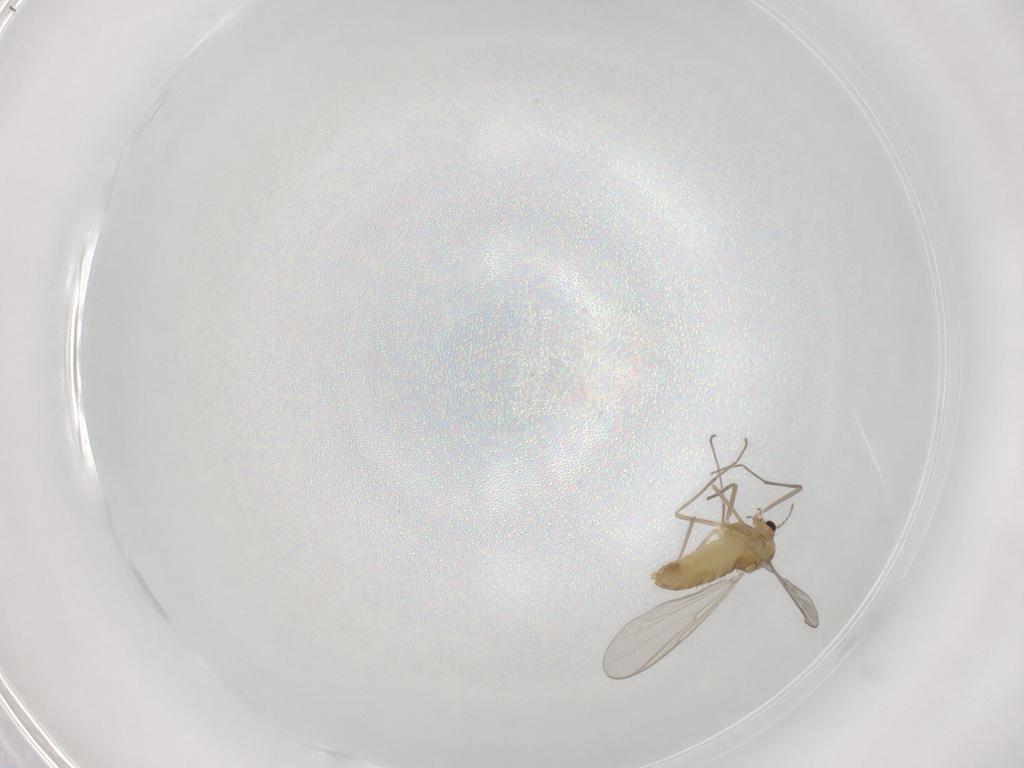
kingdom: Animalia
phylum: Arthropoda
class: Insecta
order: Diptera
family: Chironomidae
